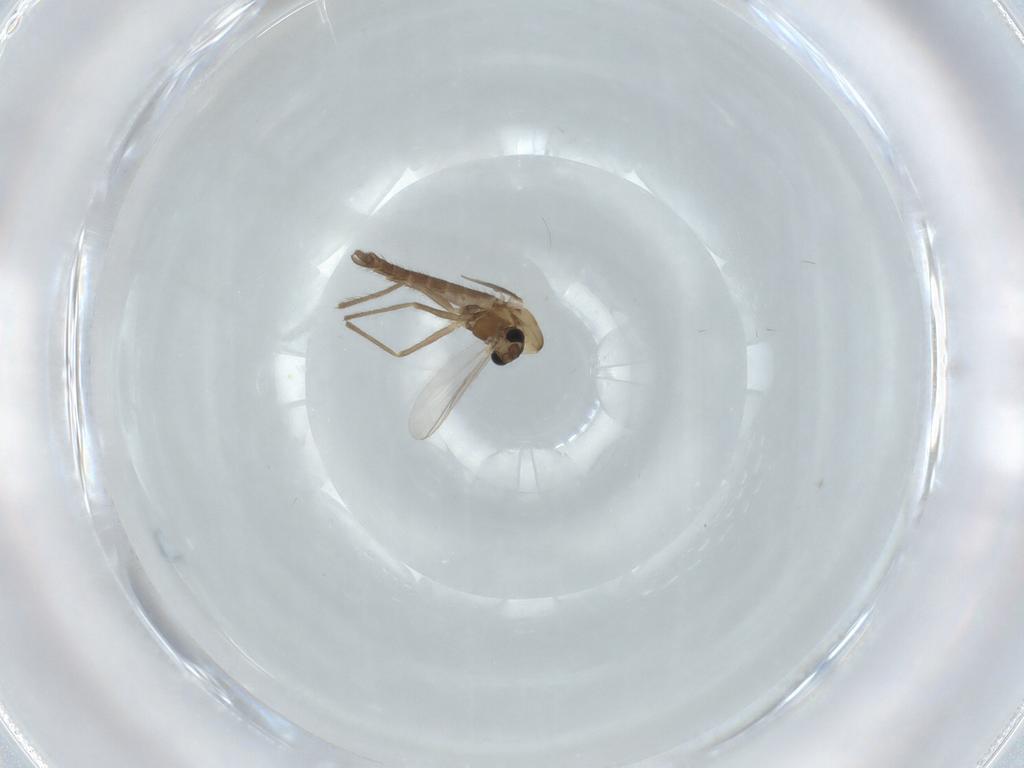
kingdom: Animalia
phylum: Arthropoda
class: Insecta
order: Diptera
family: Chironomidae
